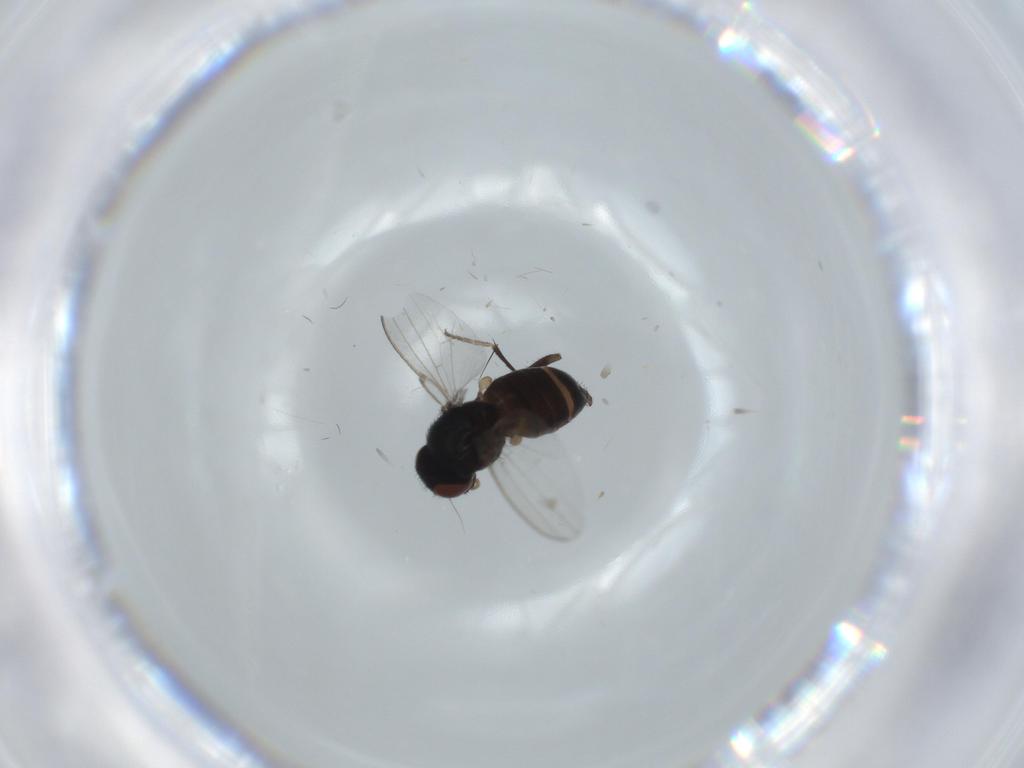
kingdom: Animalia
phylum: Arthropoda
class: Insecta
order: Diptera
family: Milichiidae
